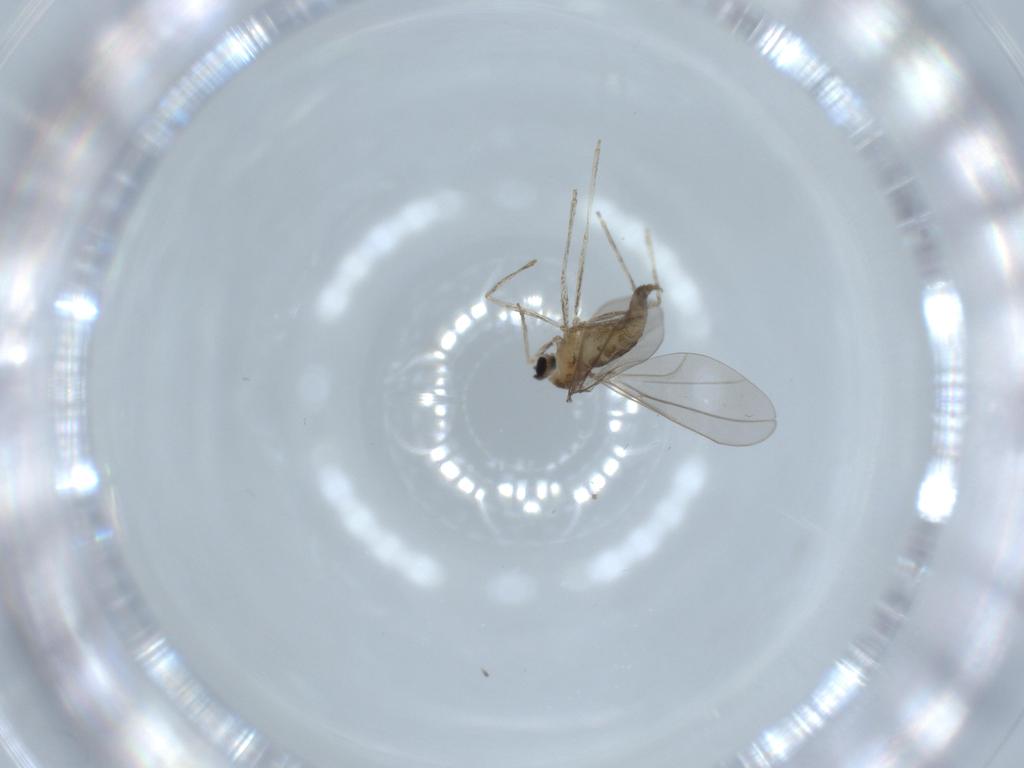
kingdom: Animalia
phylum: Arthropoda
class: Insecta
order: Diptera
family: Cecidomyiidae
